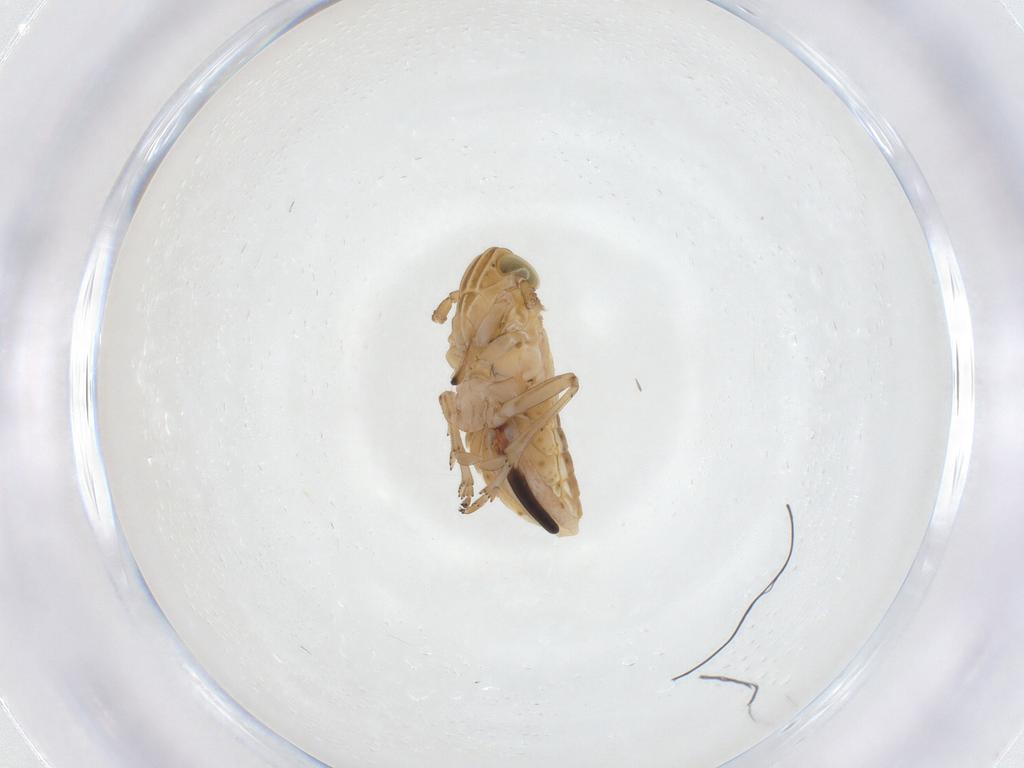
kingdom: Animalia
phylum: Arthropoda
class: Insecta
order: Hemiptera
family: Delphacidae
